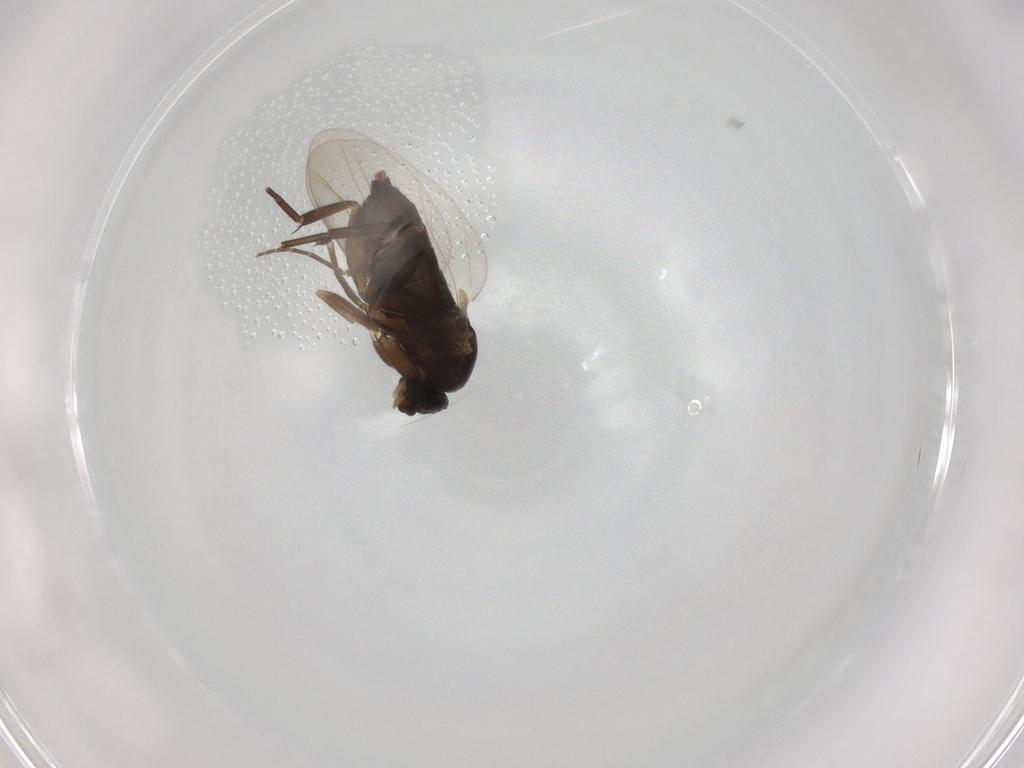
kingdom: Animalia
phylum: Arthropoda
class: Insecta
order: Diptera
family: Phoridae
